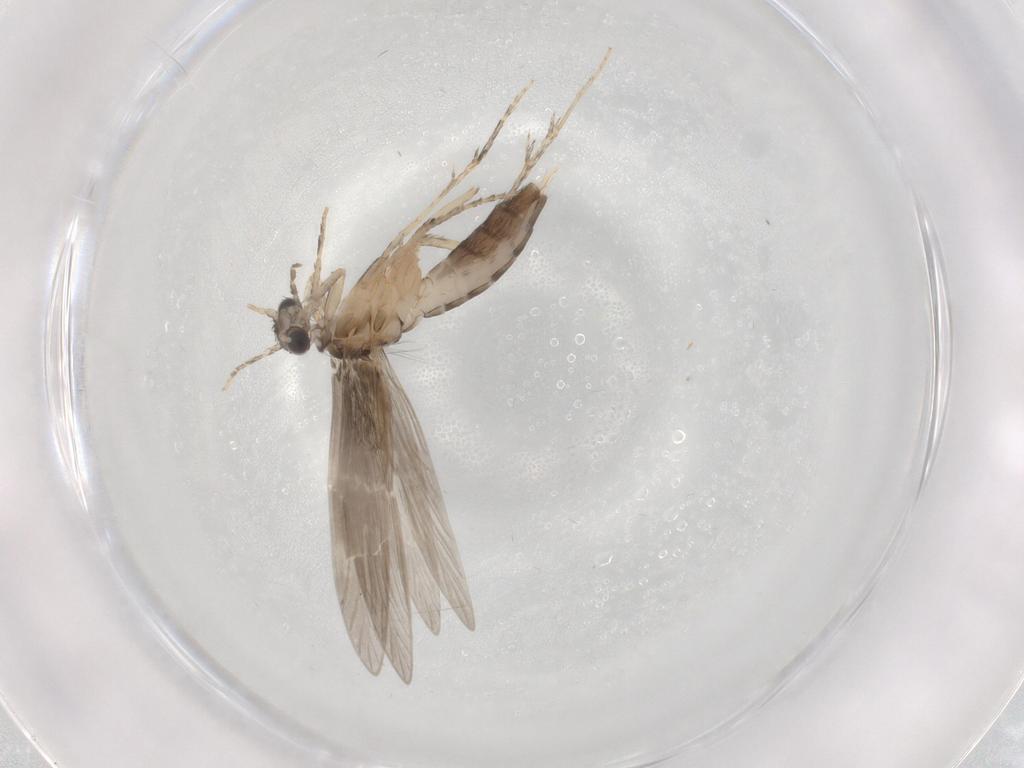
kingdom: Animalia
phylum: Arthropoda
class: Insecta
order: Trichoptera
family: Hydroptilidae
